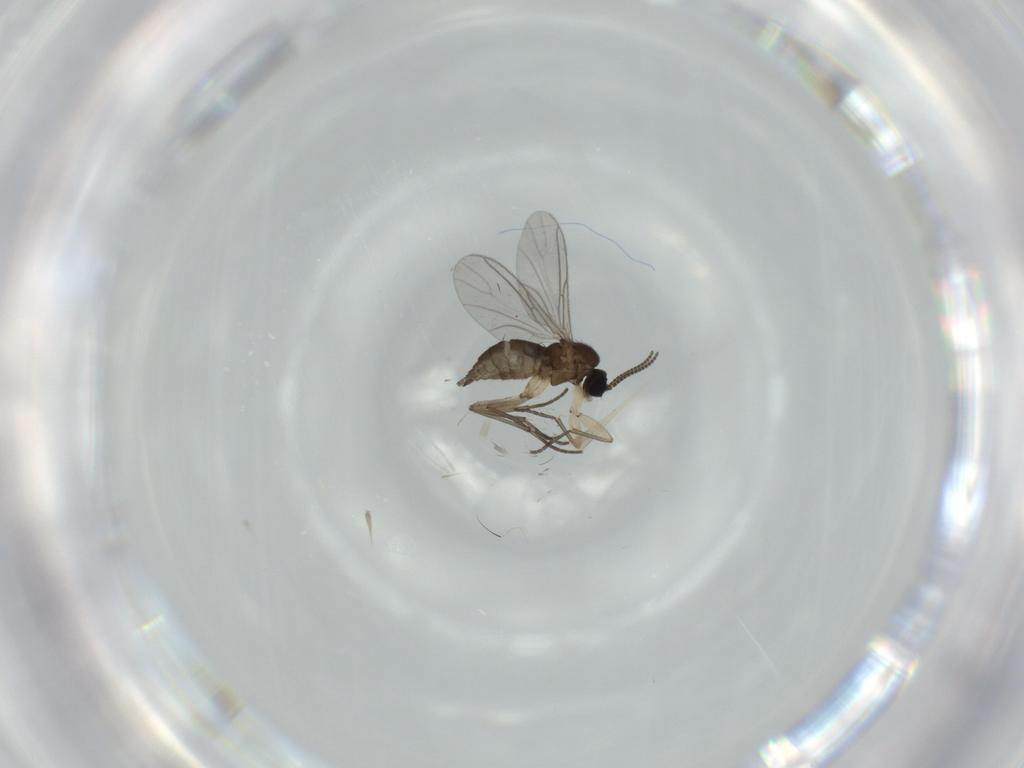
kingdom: Animalia
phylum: Arthropoda
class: Insecta
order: Diptera
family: Sciaridae
